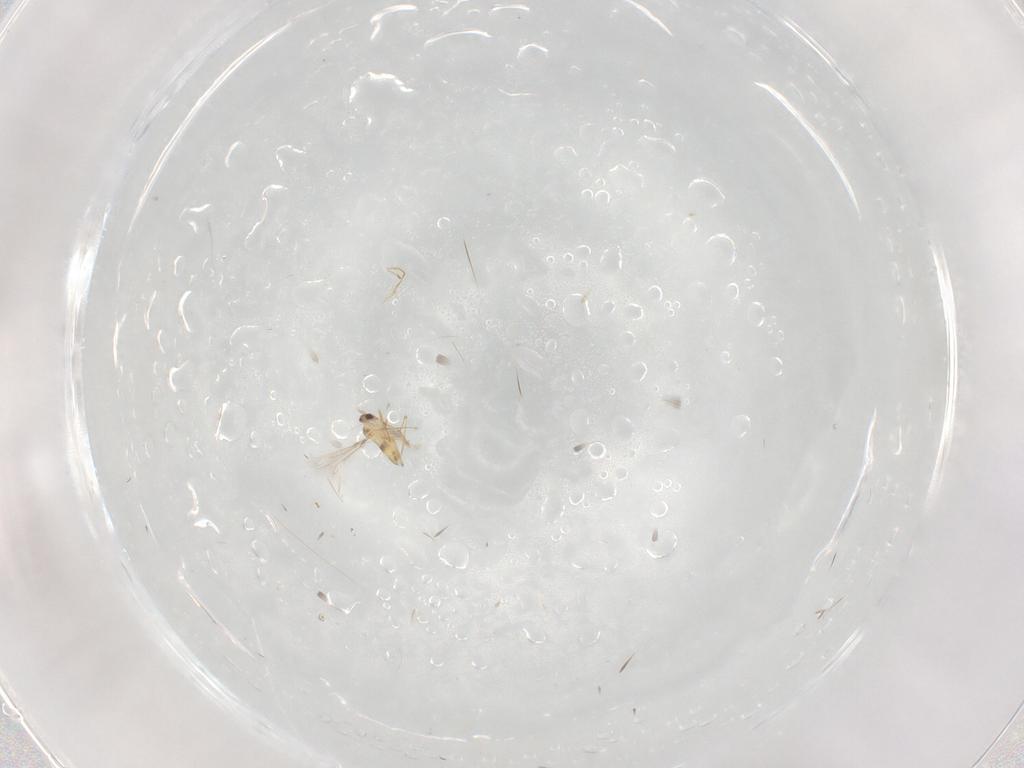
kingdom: Animalia
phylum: Arthropoda
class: Insecta
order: Hymenoptera
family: Mymaridae
